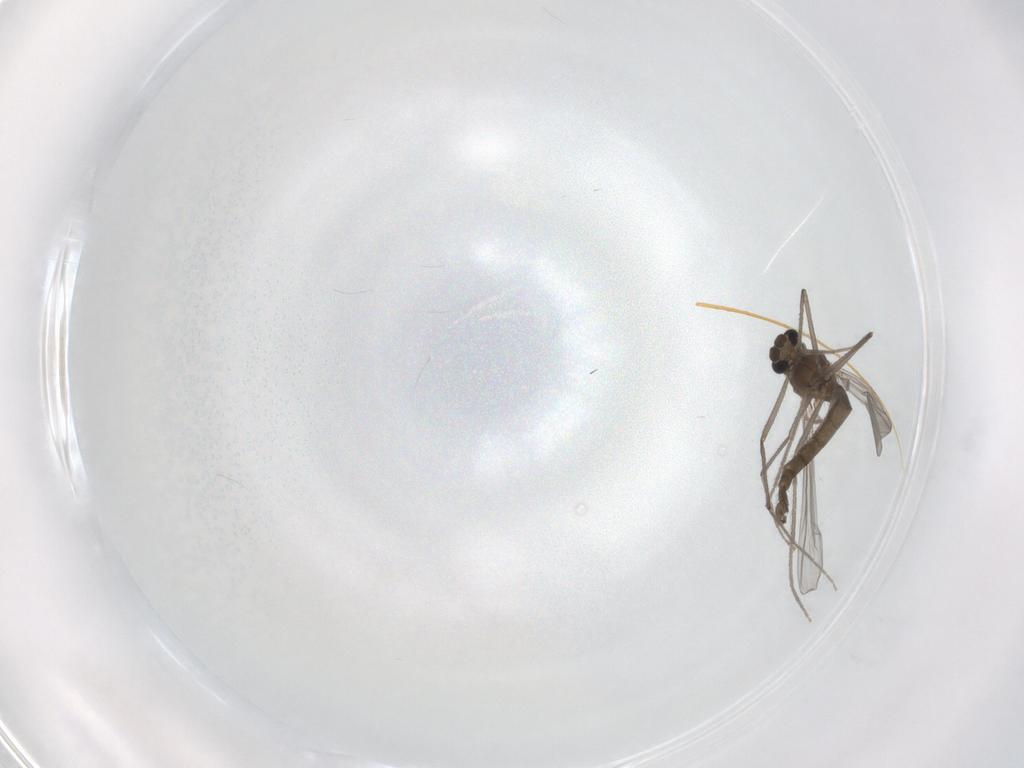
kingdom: Animalia
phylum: Arthropoda
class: Insecta
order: Diptera
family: Chironomidae
